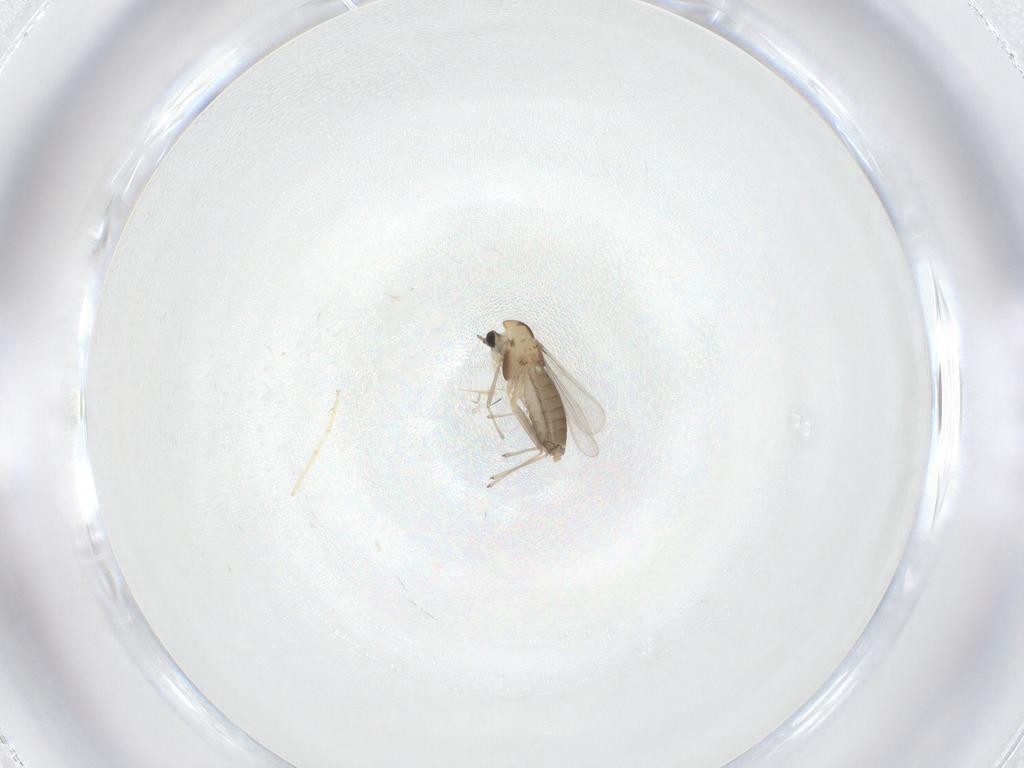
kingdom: Animalia
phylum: Arthropoda
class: Insecta
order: Diptera
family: Chironomidae
